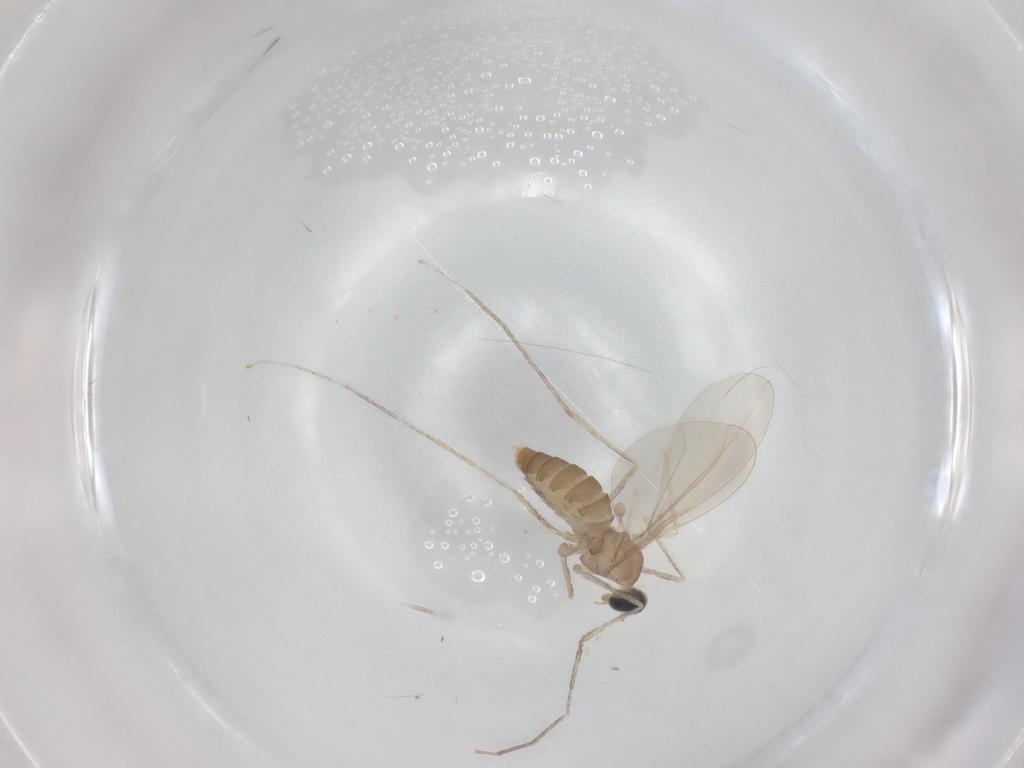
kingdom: Animalia
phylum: Arthropoda
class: Insecta
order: Diptera
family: Cecidomyiidae
